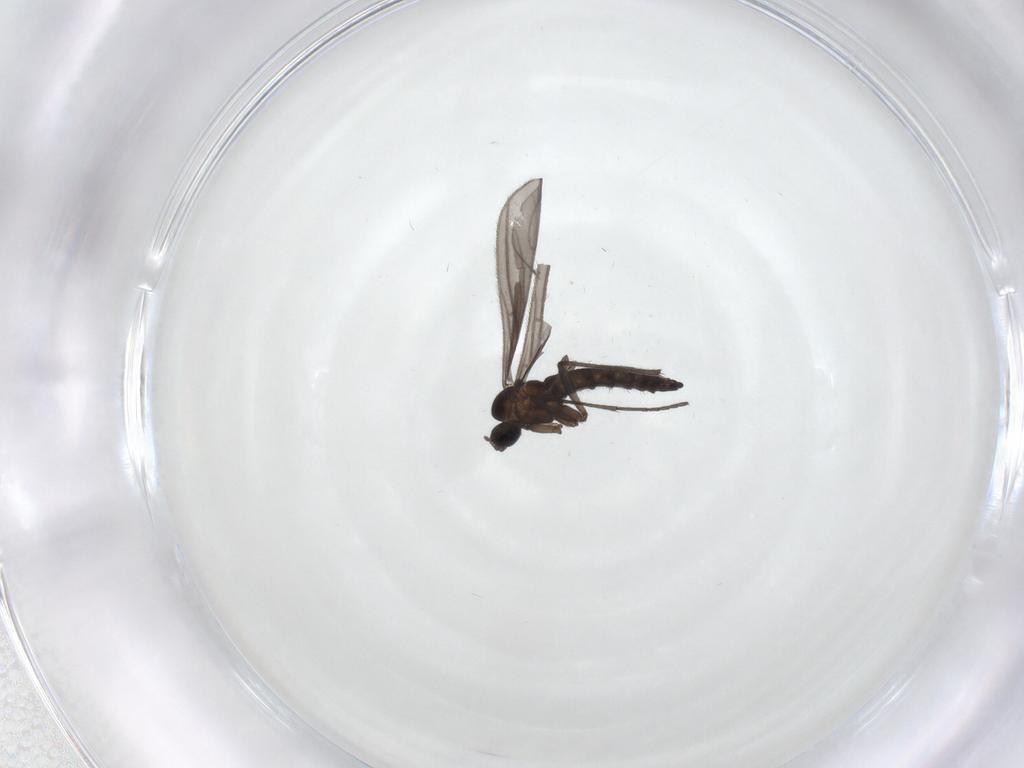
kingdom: Animalia
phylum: Arthropoda
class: Insecta
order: Diptera
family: Sciaridae
